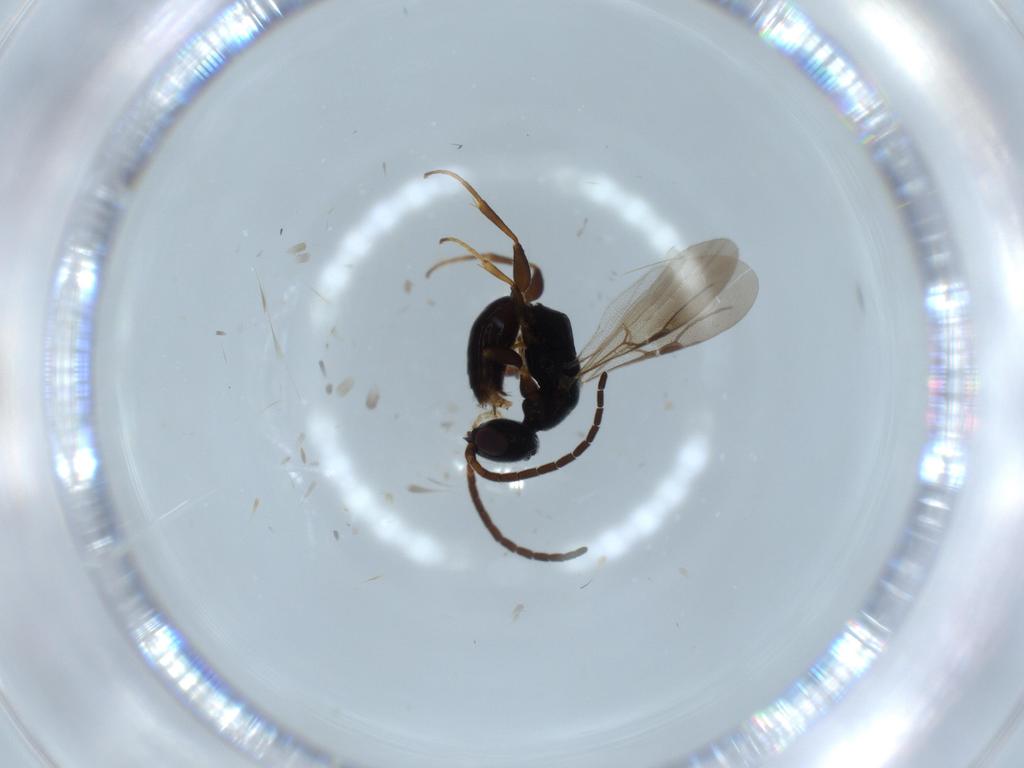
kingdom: Animalia
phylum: Arthropoda
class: Insecta
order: Hymenoptera
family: Bethylidae
